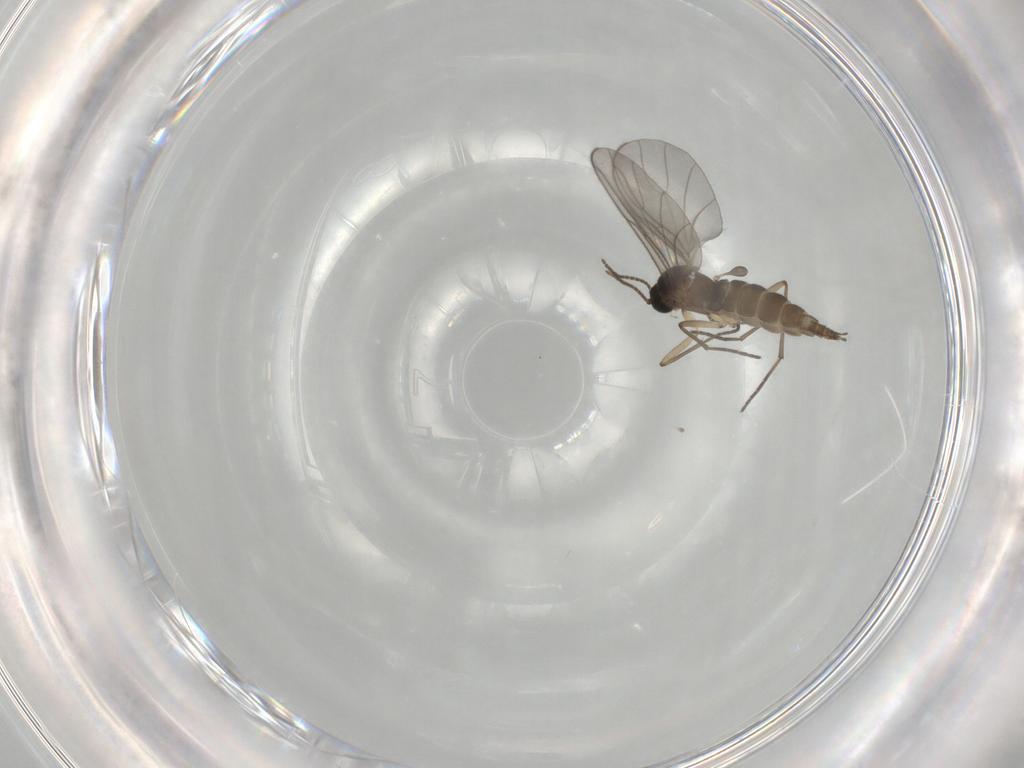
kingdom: Animalia
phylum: Arthropoda
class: Insecta
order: Diptera
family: Sciaridae
